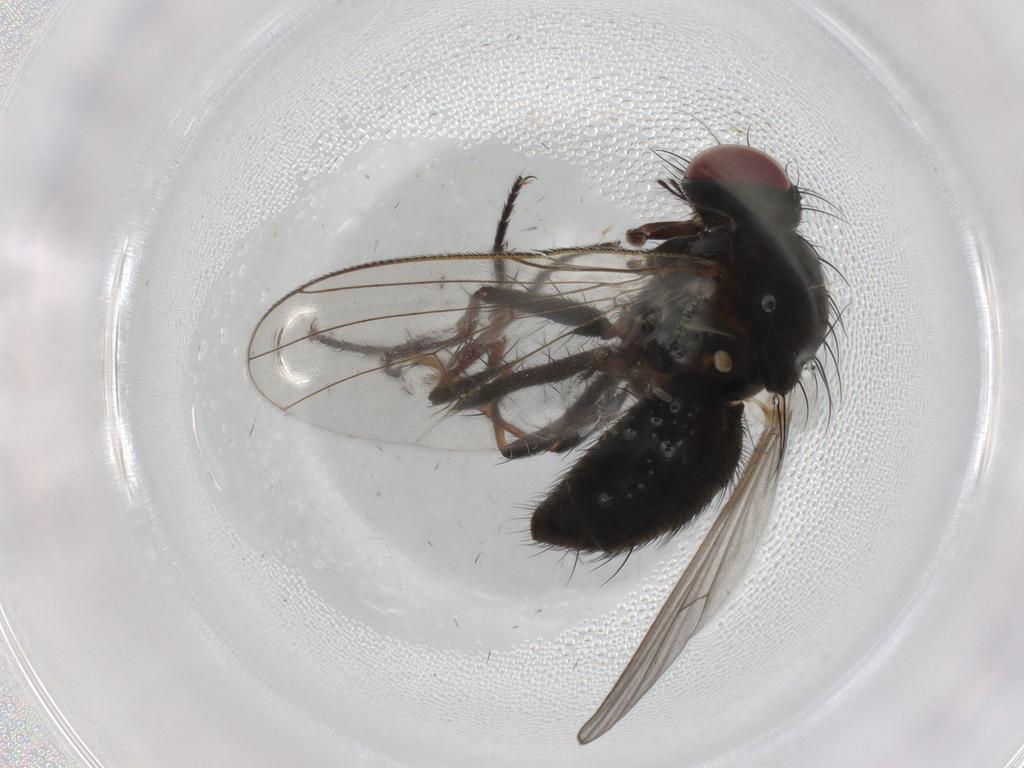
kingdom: Animalia
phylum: Arthropoda
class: Insecta
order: Diptera
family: Muscidae
